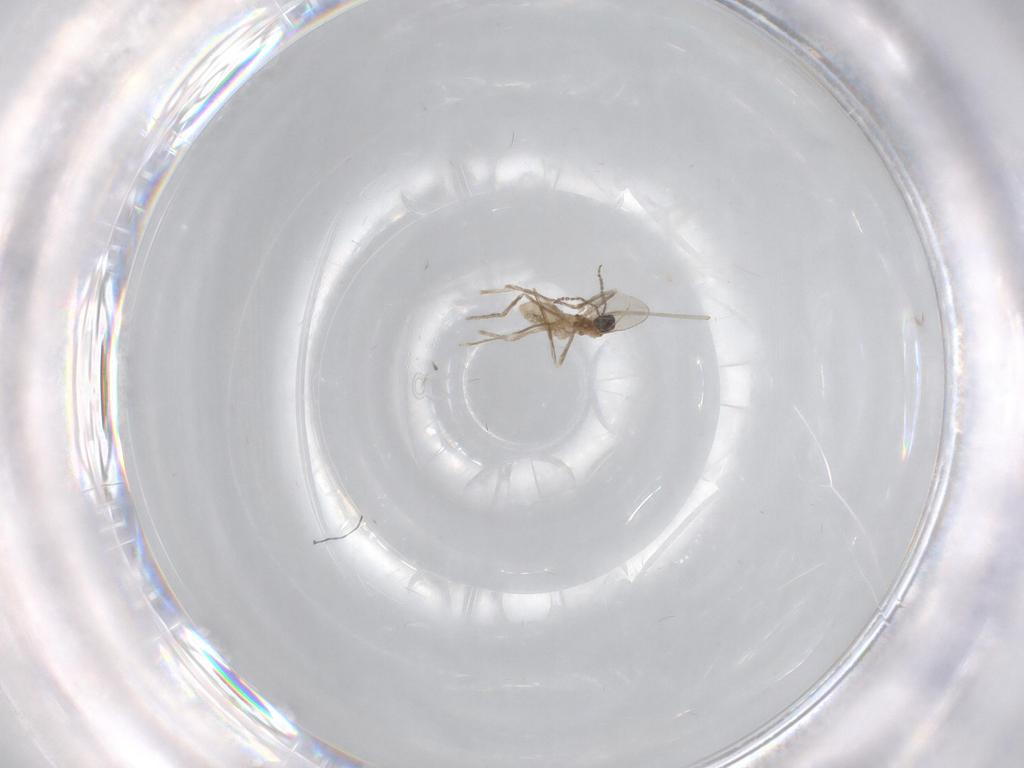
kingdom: Animalia
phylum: Arthropoda
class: Insecta
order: Diptera
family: Cecidomyiidae
